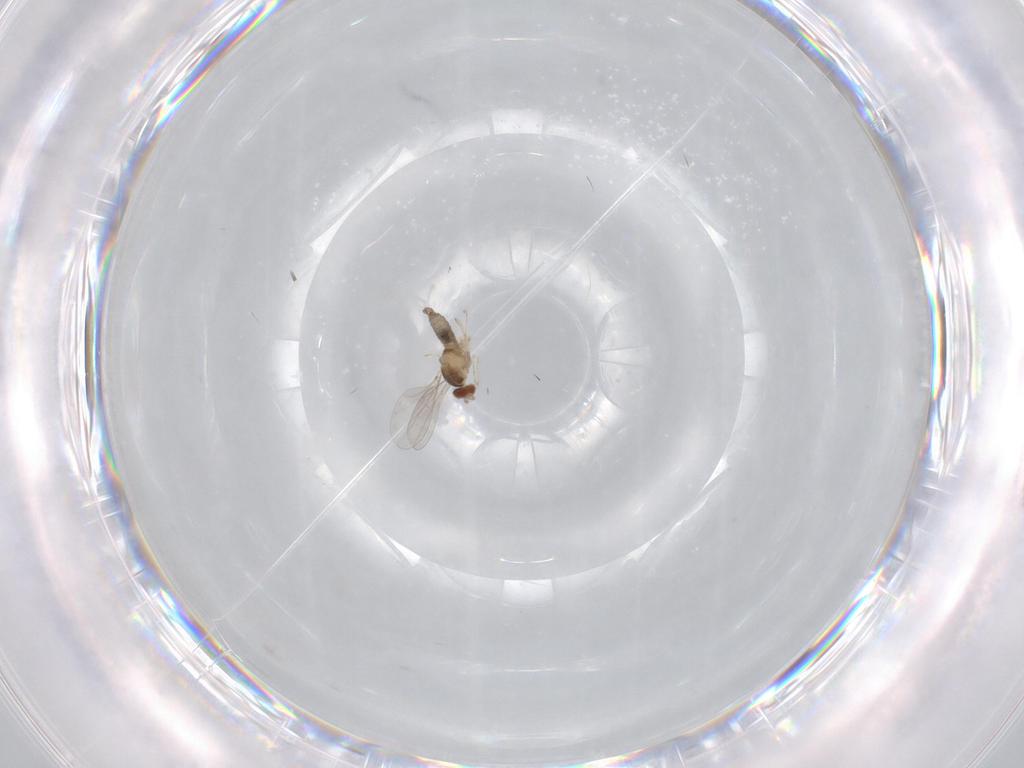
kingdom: Animalia
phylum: Arthropoda
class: Insecta
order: Diptera
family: Cecidomyiidae
